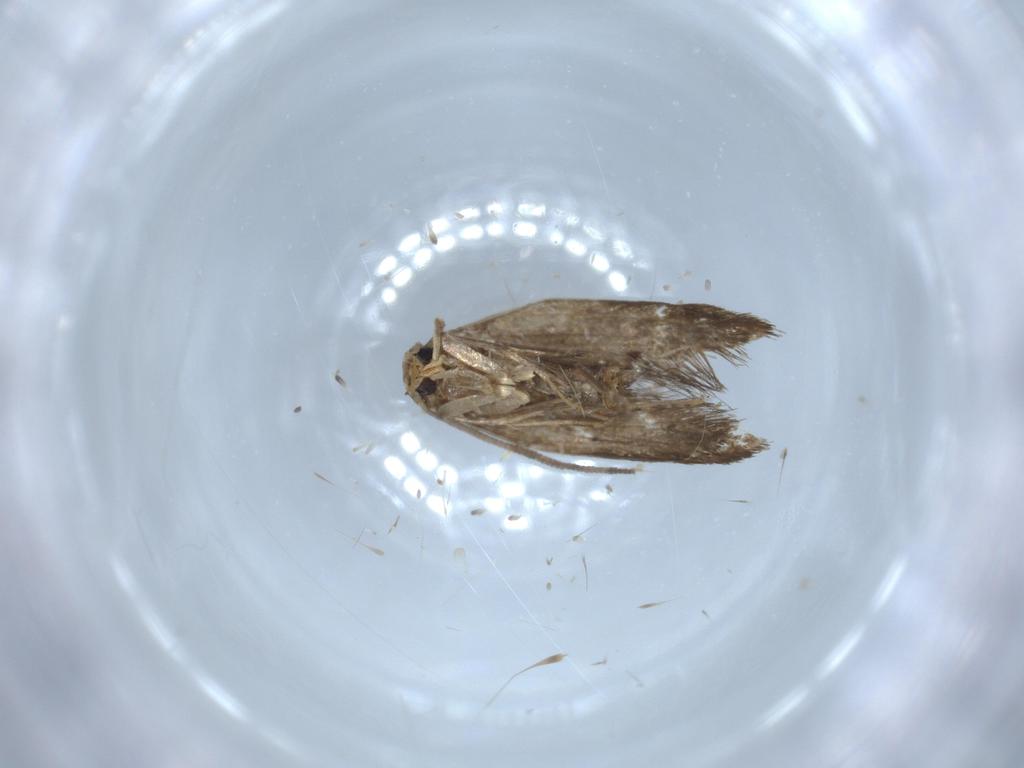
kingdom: Animalia
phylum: Arthropoda
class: Insecta
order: Lepidoptera
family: Tineidae
